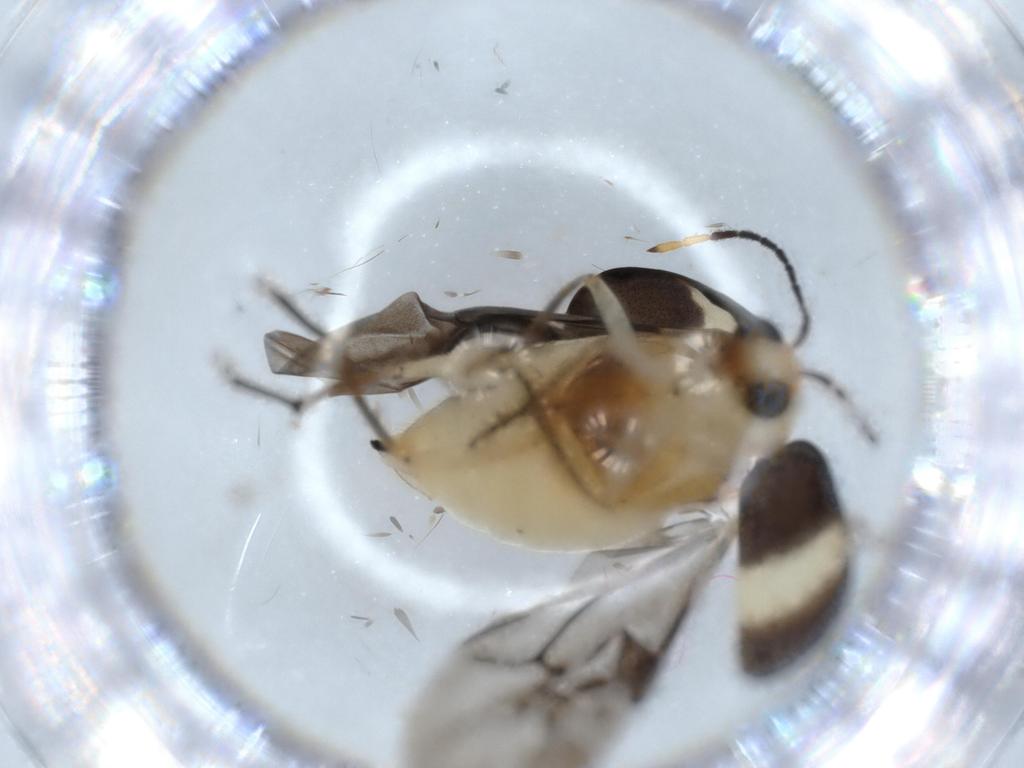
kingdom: Animalia
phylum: Arthropoda
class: Insecta
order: Coleoptera
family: Chrysomelidae
